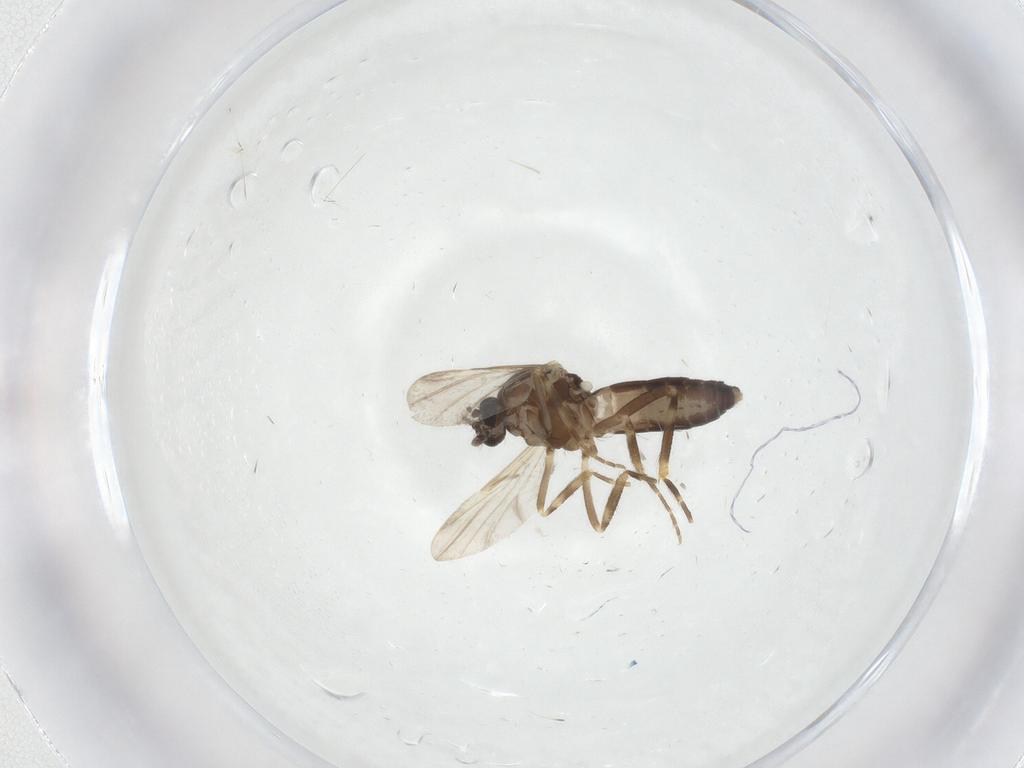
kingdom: Animalia
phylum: Arthropoda
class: Insecta
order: Diptera
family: Ceratopogonidae
